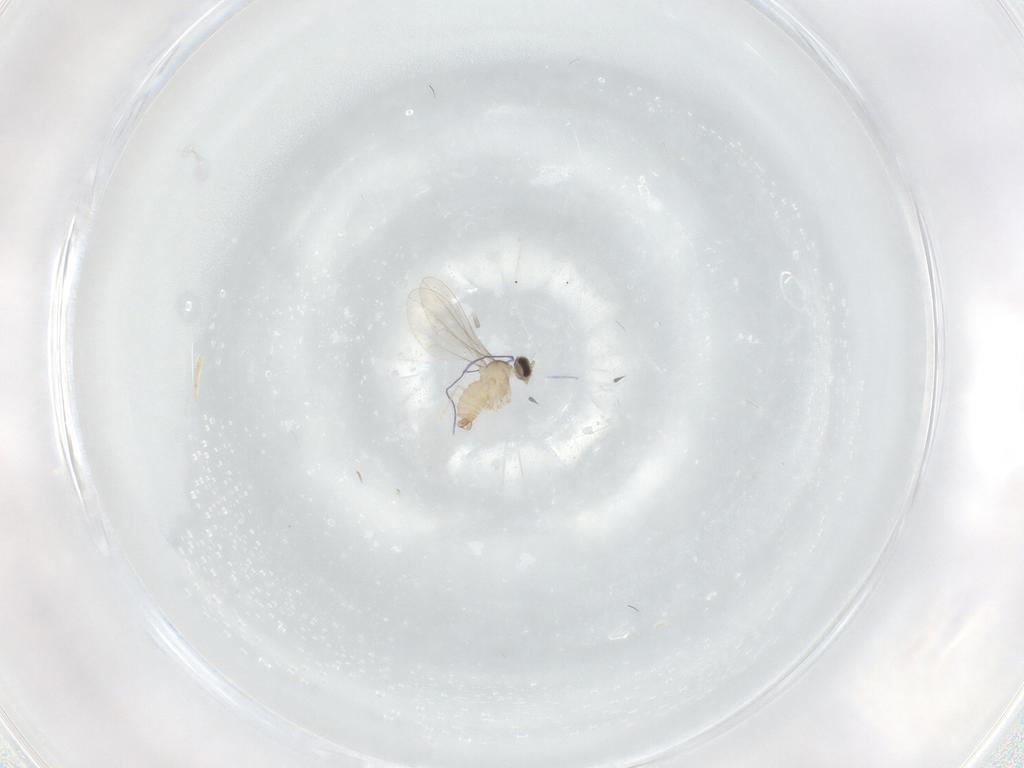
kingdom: Animalia
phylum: Arthropoda
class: Insecta
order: Diptera
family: Cecidomyiidae
